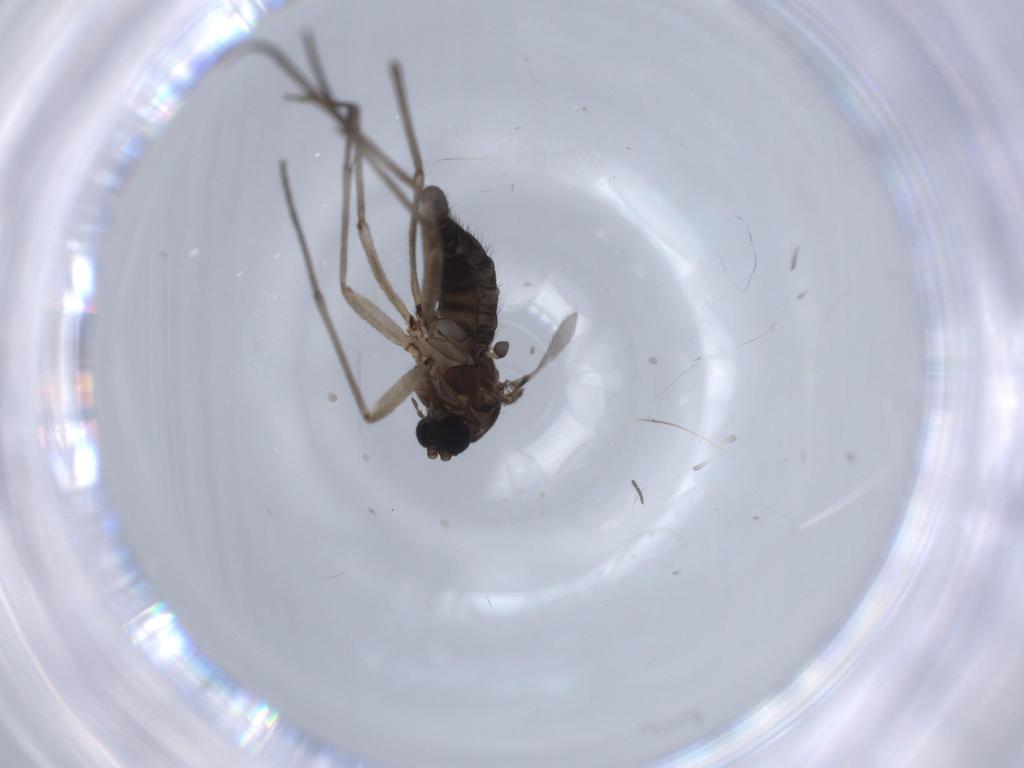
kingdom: Animalia
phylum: Arthropoda
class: Insecta
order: Diptera
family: Sciaridae
